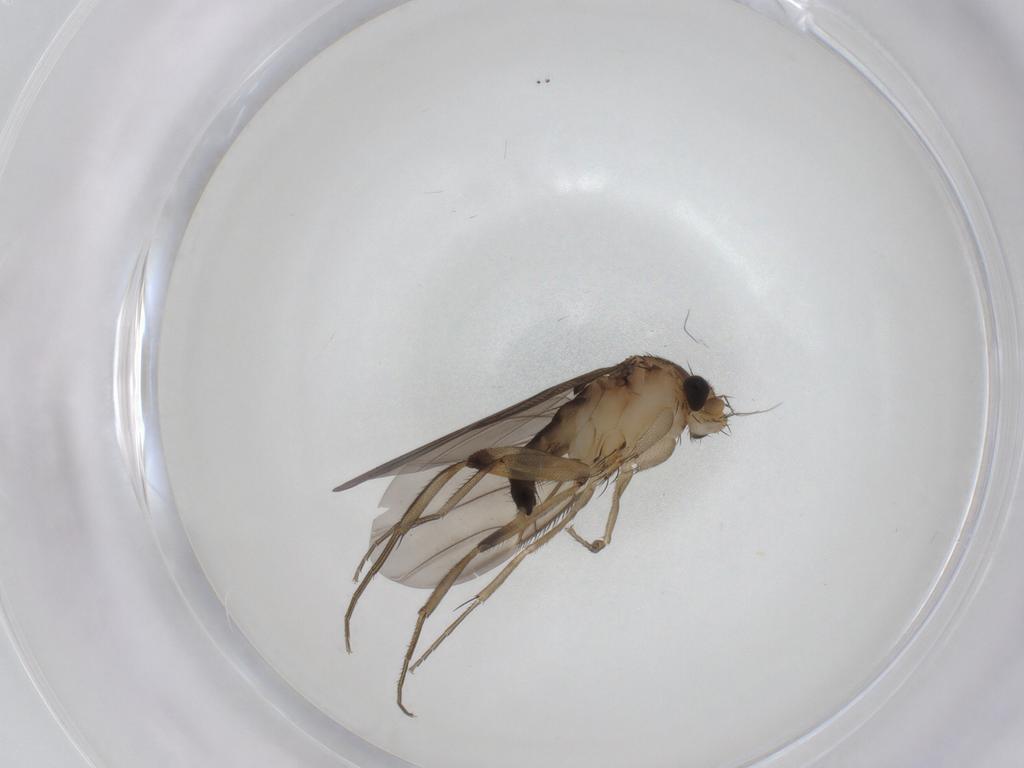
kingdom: Animalia
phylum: Arthropoda
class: Insecta
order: Diptera
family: Phoridae
